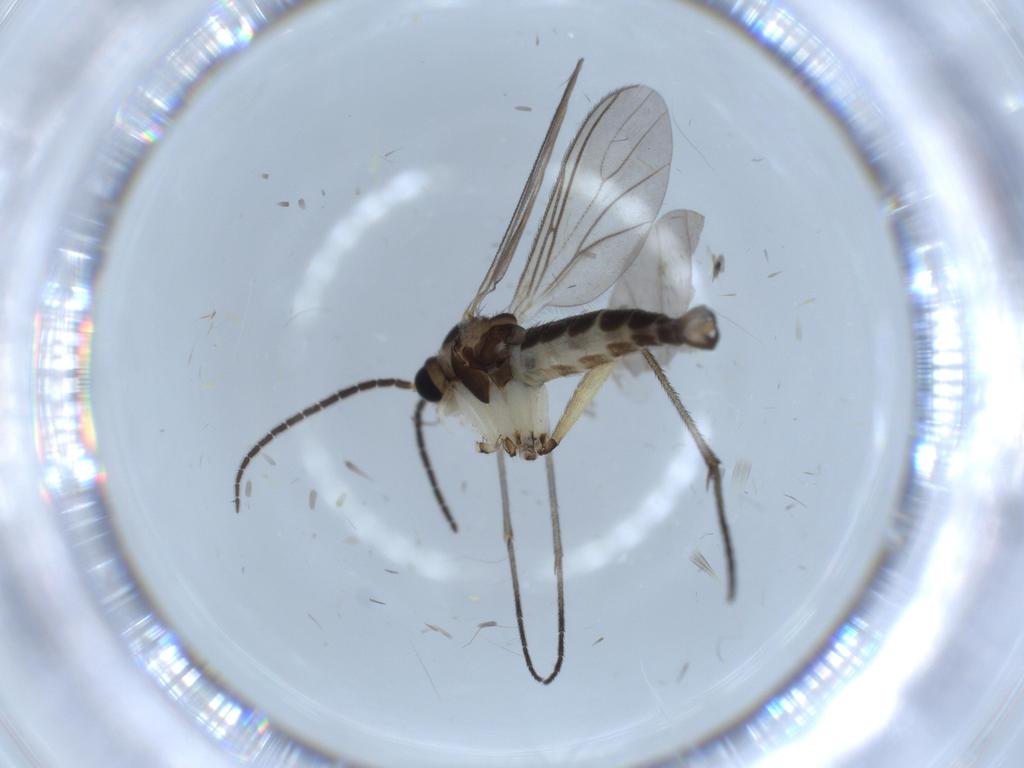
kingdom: Animalia
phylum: Arthropoda
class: Insecta
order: Diptera
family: Sciaridae
